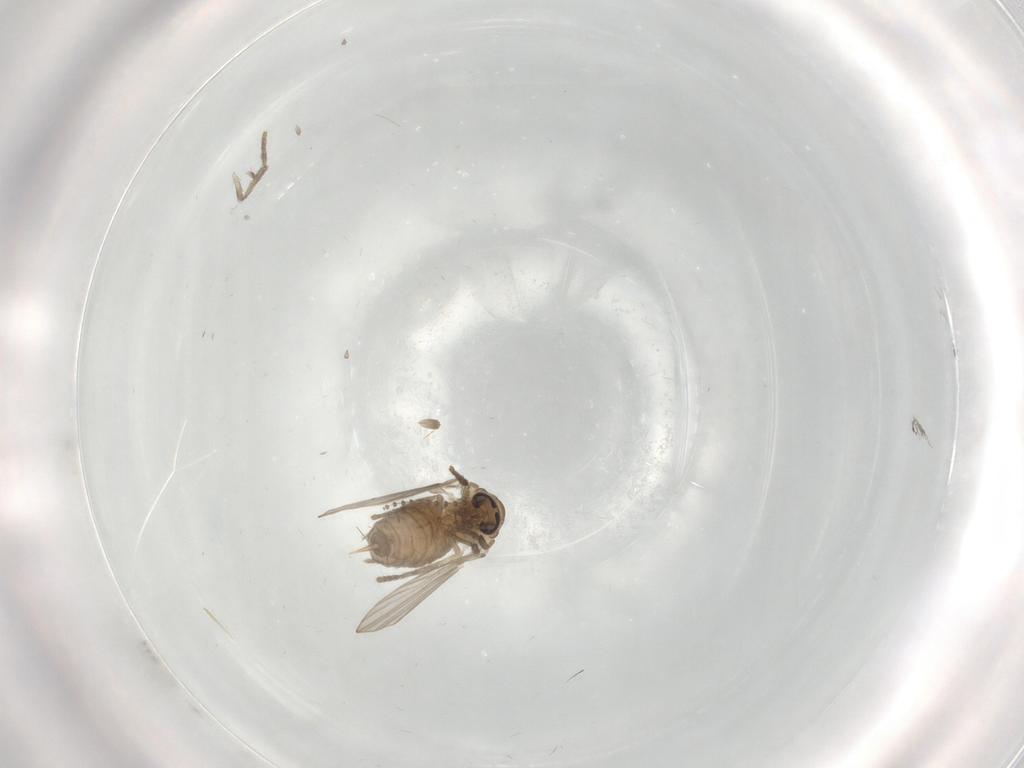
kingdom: Animalia
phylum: Arthropoda
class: Insecta
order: Diptera
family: Psychodidae
